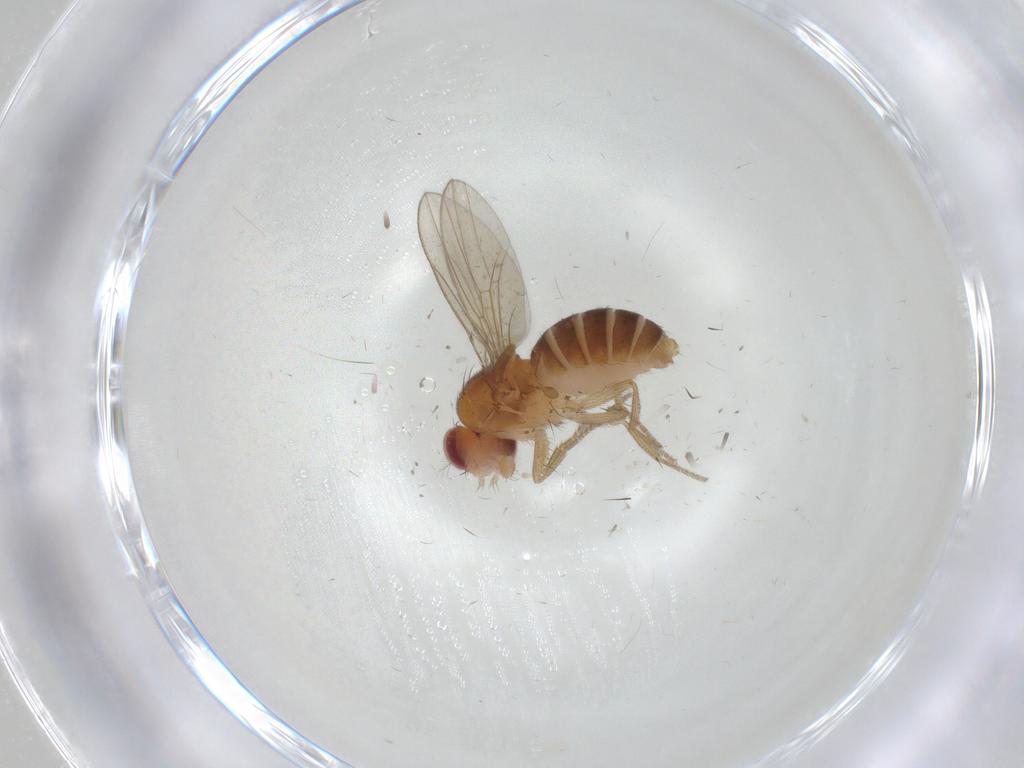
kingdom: Animalia
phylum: Arthropoda
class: Insecta
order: Diptera
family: Drosophilidae
